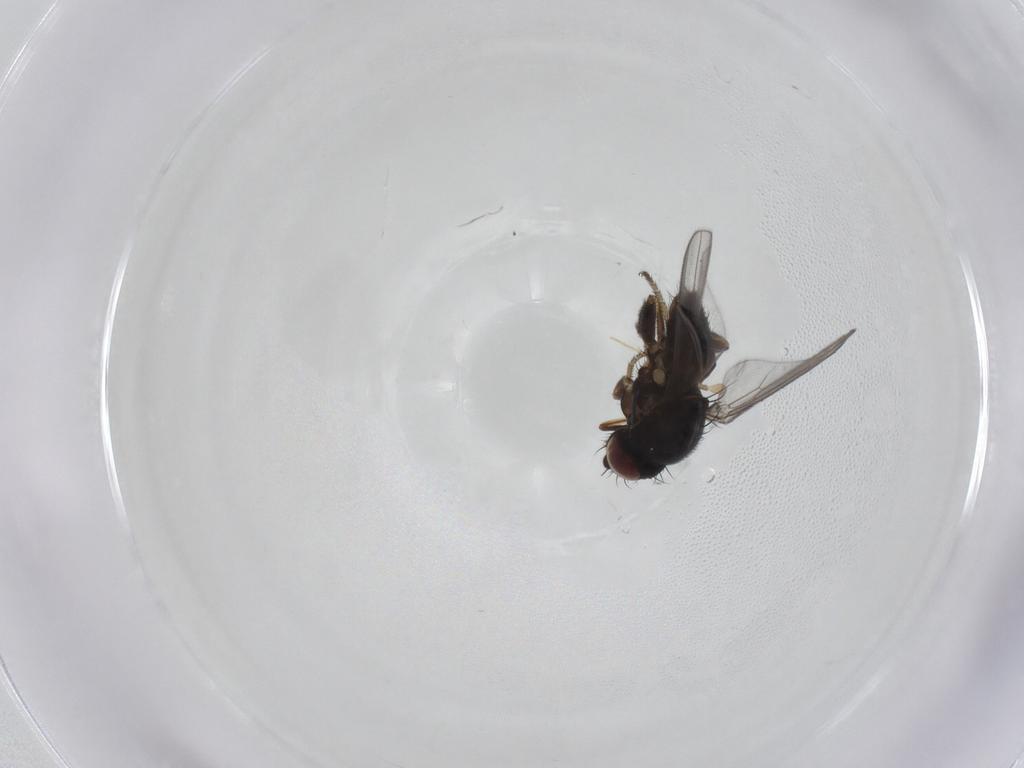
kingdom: Animalia
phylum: Arthropoda
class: Insecta
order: Diptera
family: Milichiidae
